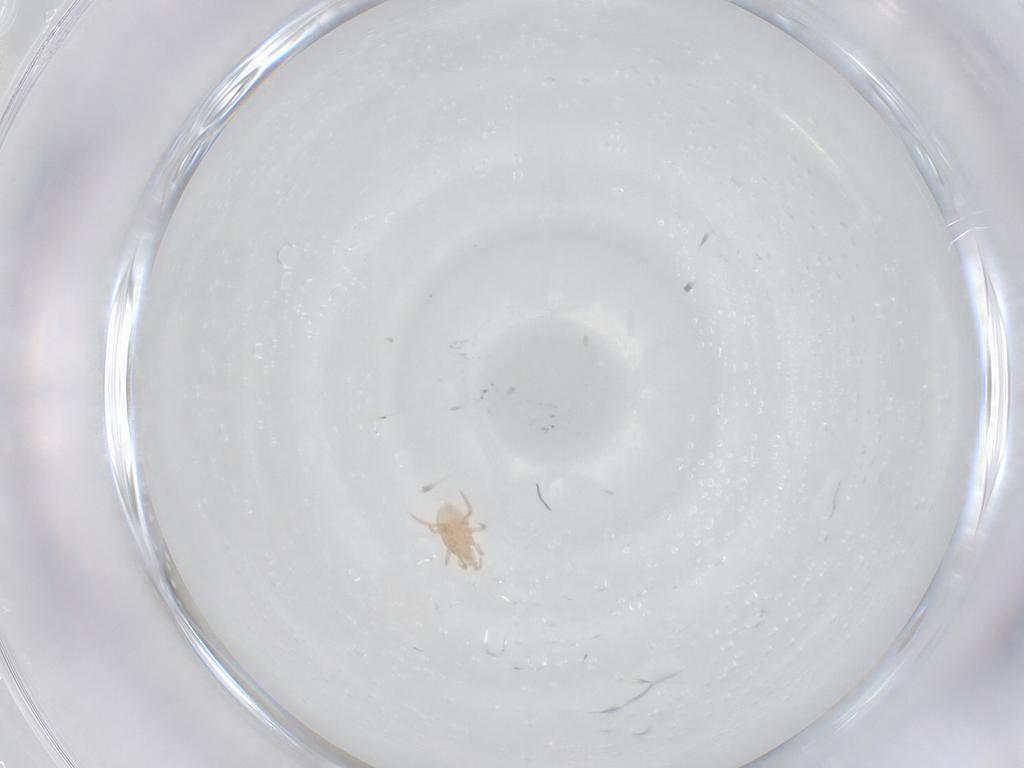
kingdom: Animalia
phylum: Arthropoda
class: Arachnida
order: Mesostigmata
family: Melicharidae
